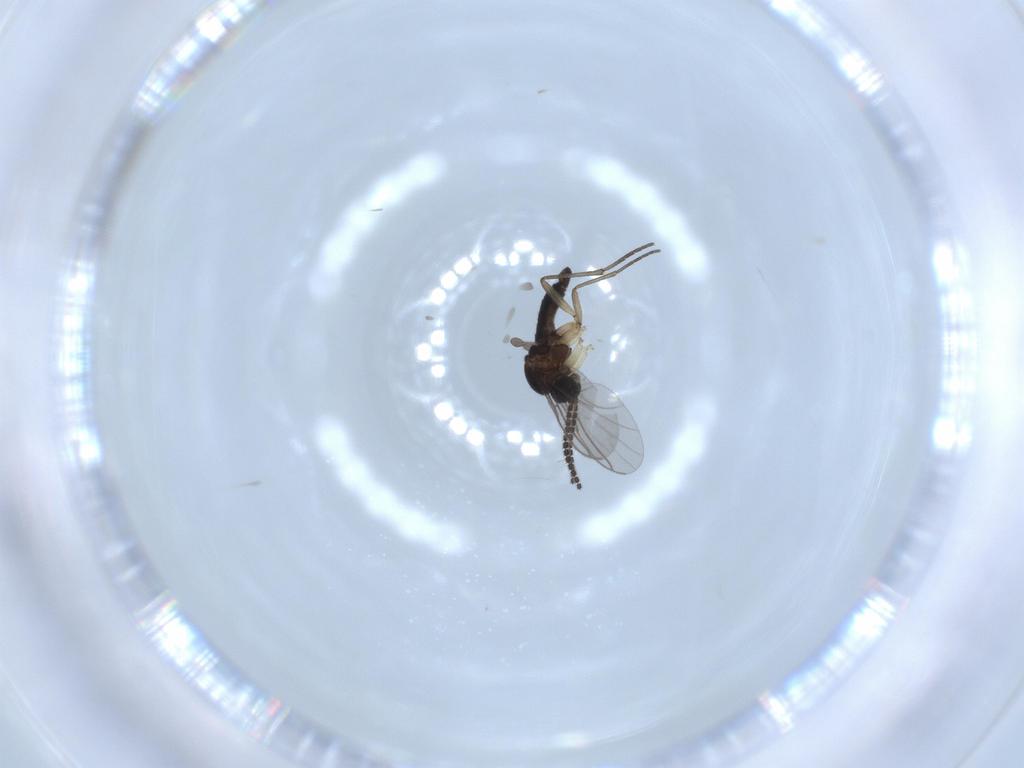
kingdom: Animalia
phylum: Arthropoda
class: Insecta
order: Diptera
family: Sciaridae
